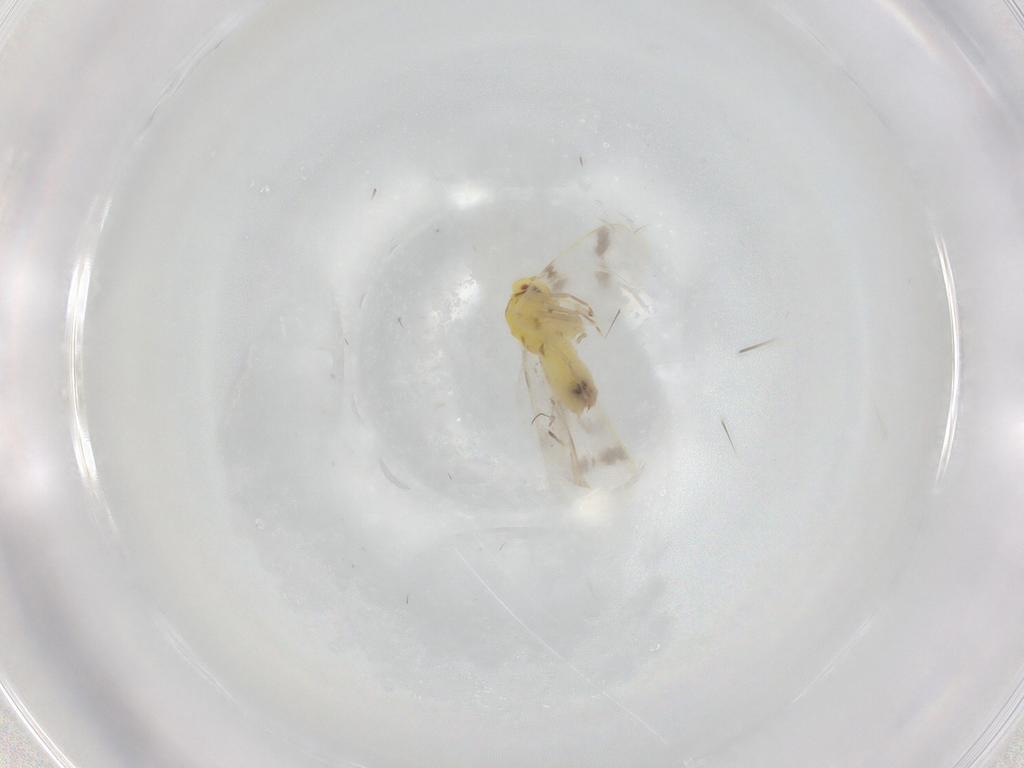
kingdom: Animalia
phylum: Arthropoda
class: Insecta
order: Hemiptera
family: Aleyrodidae
